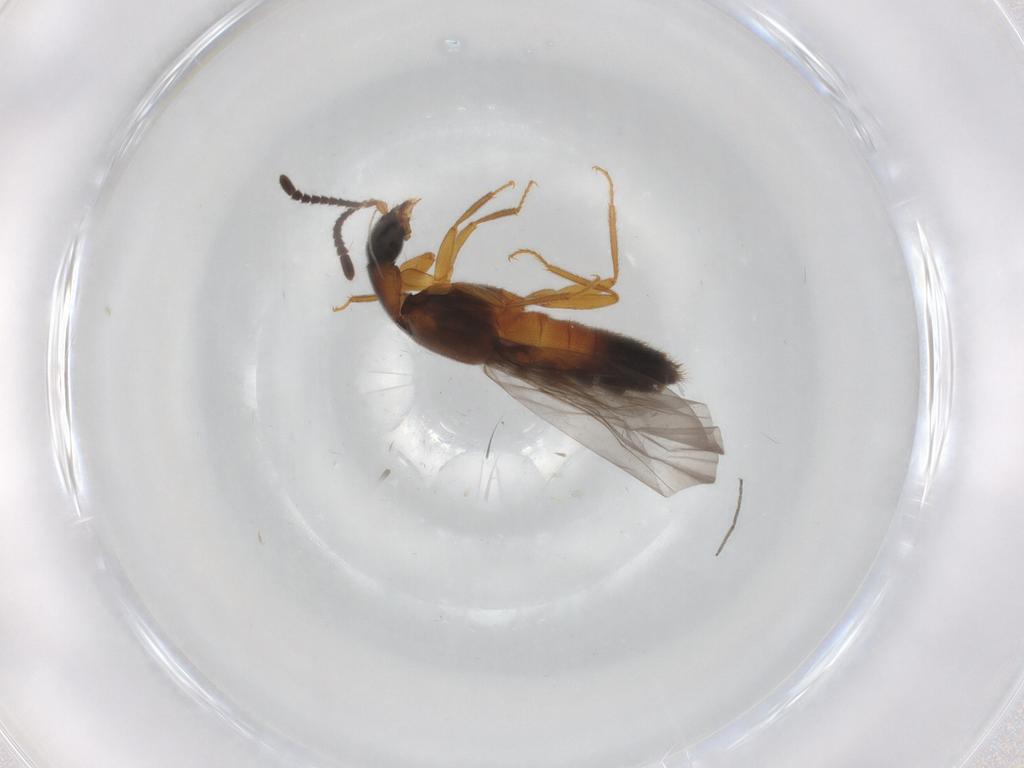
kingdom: Animalia
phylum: Arthropoda
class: Insecta
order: Coleoptera
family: Staphylinidae
